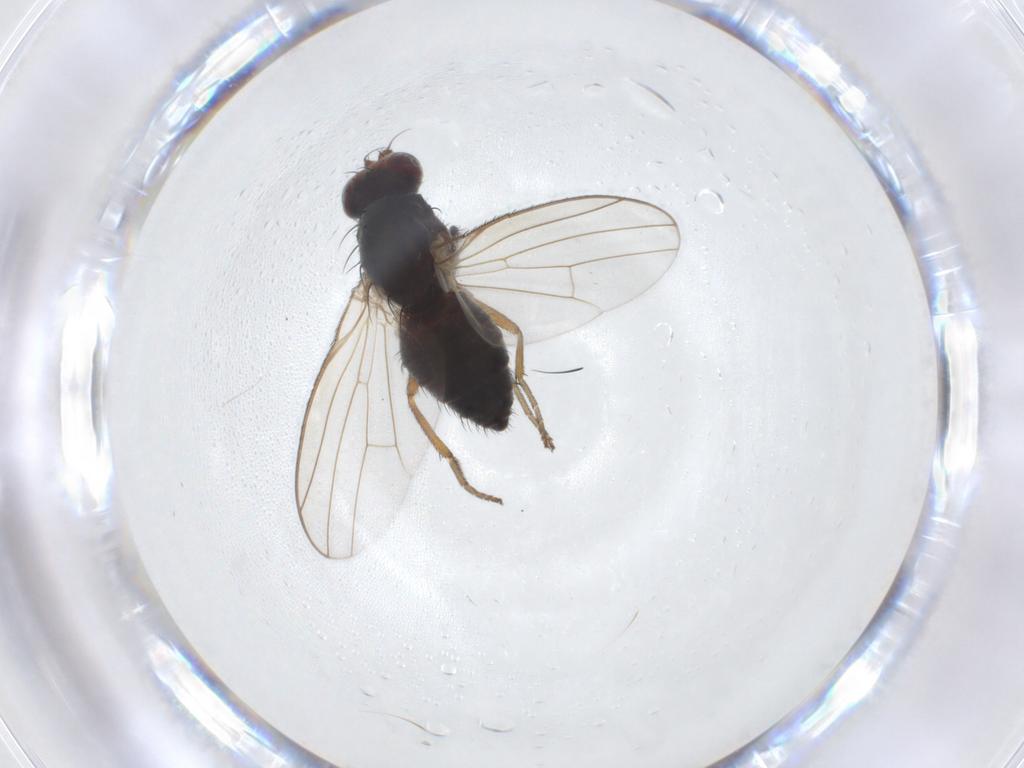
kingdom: Animalia
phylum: Arthropoda
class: Insecta
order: Diptera
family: Heleomyzidae
